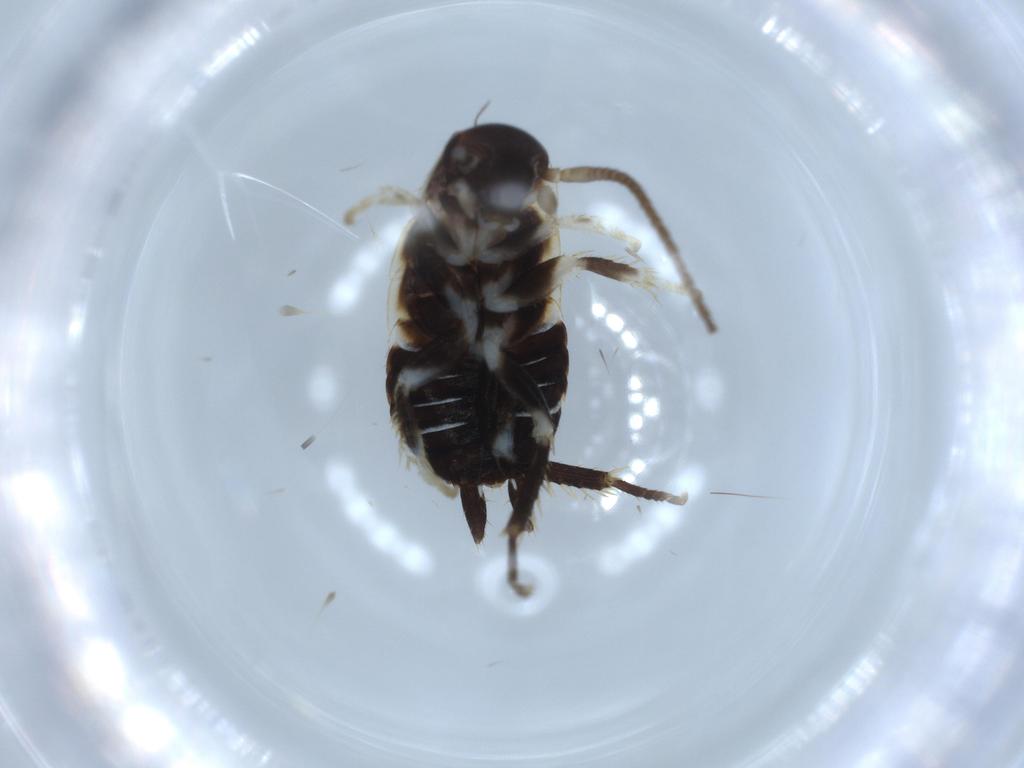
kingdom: Animalia
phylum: Arthropoda
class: Insecta
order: Blattodea
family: Ectobiidae
